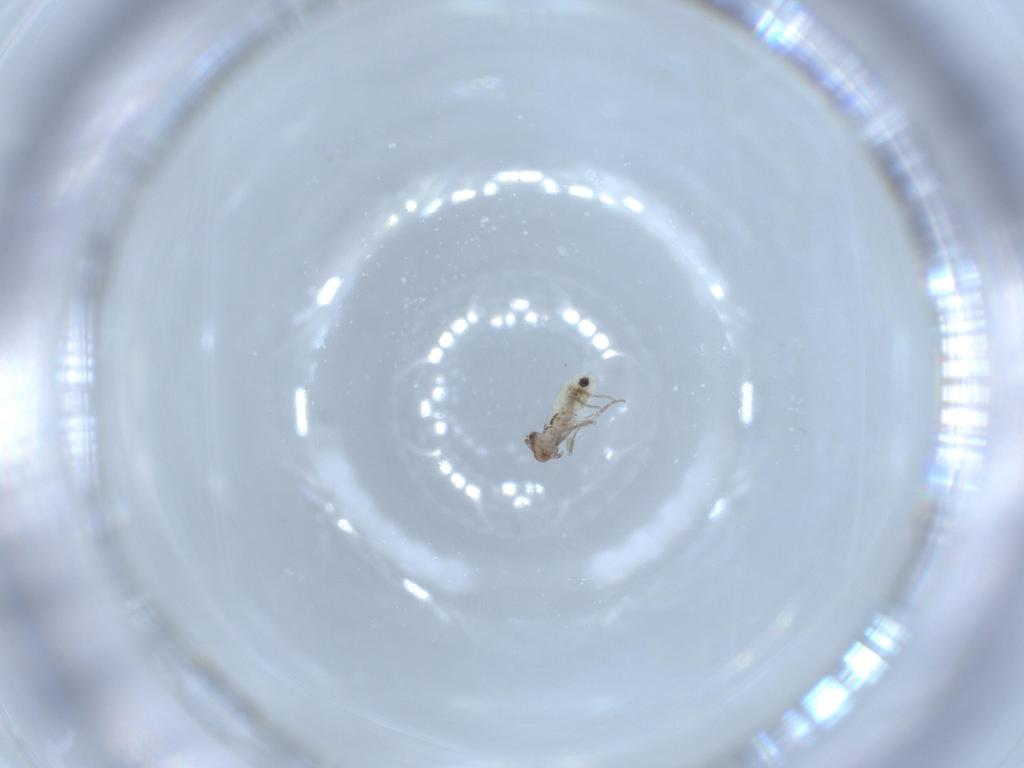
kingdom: Animalia
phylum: Arthropoda
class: Insecta
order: Psocodea
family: Lepidopsocidae
